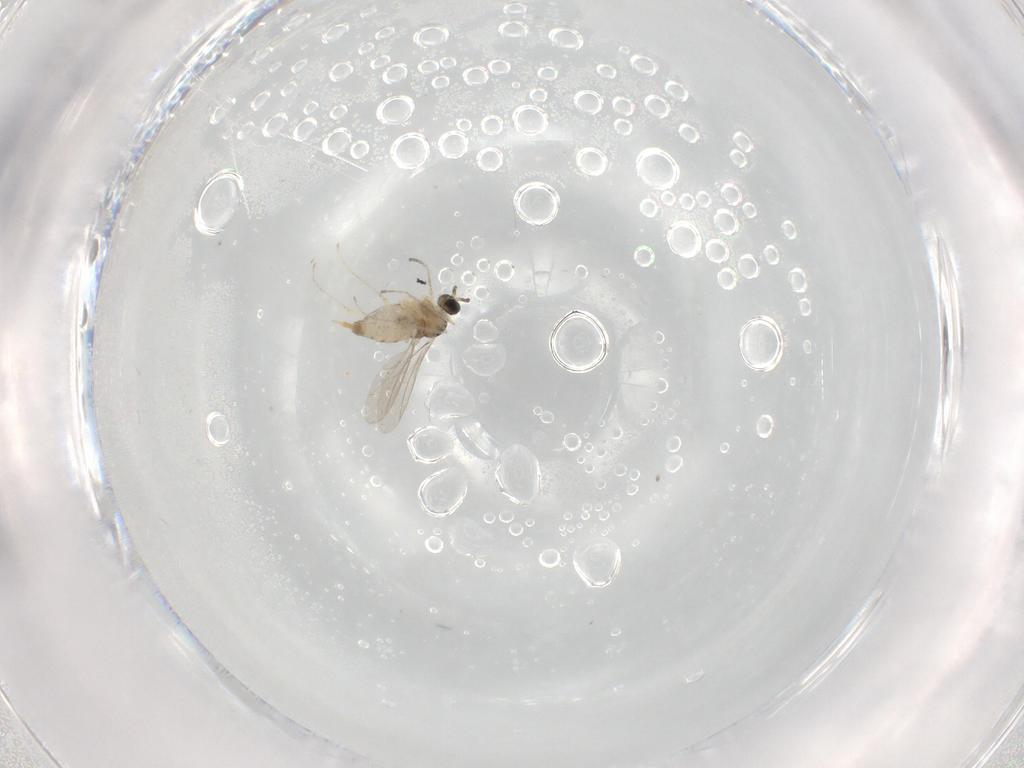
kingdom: Animalia
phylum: Arthropoda
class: Insecta
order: Diptera
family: Cecidomyiidae
